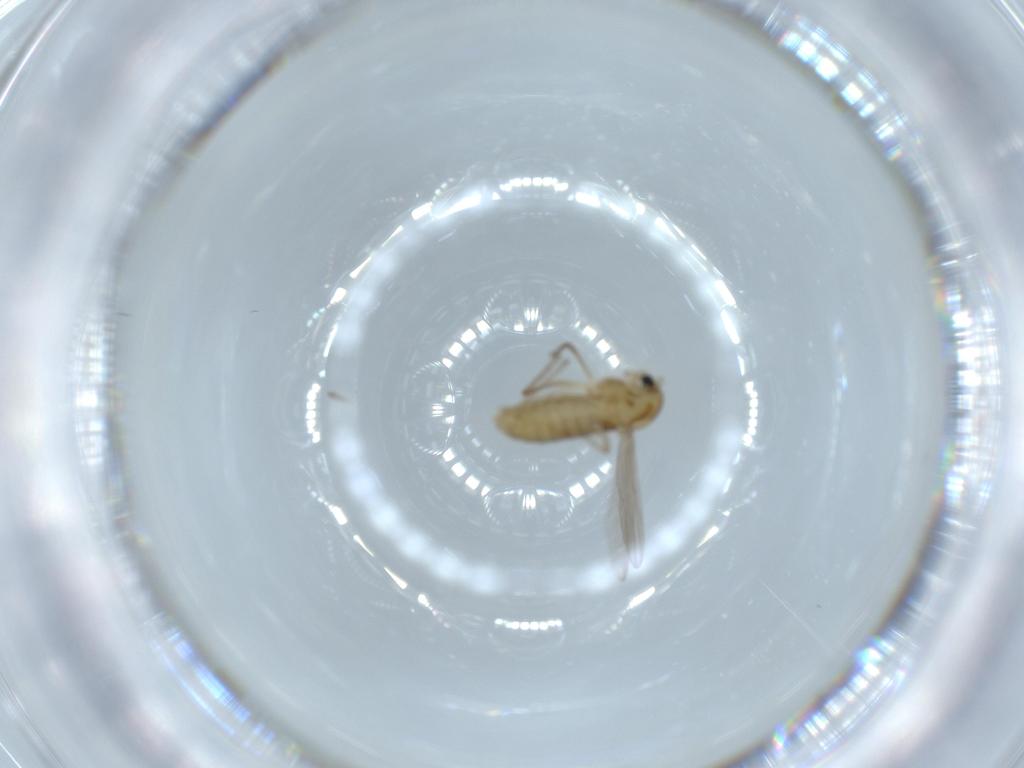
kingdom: Animalia
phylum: Arthropoda
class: Insecta
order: Diptera
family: Chironomidae
